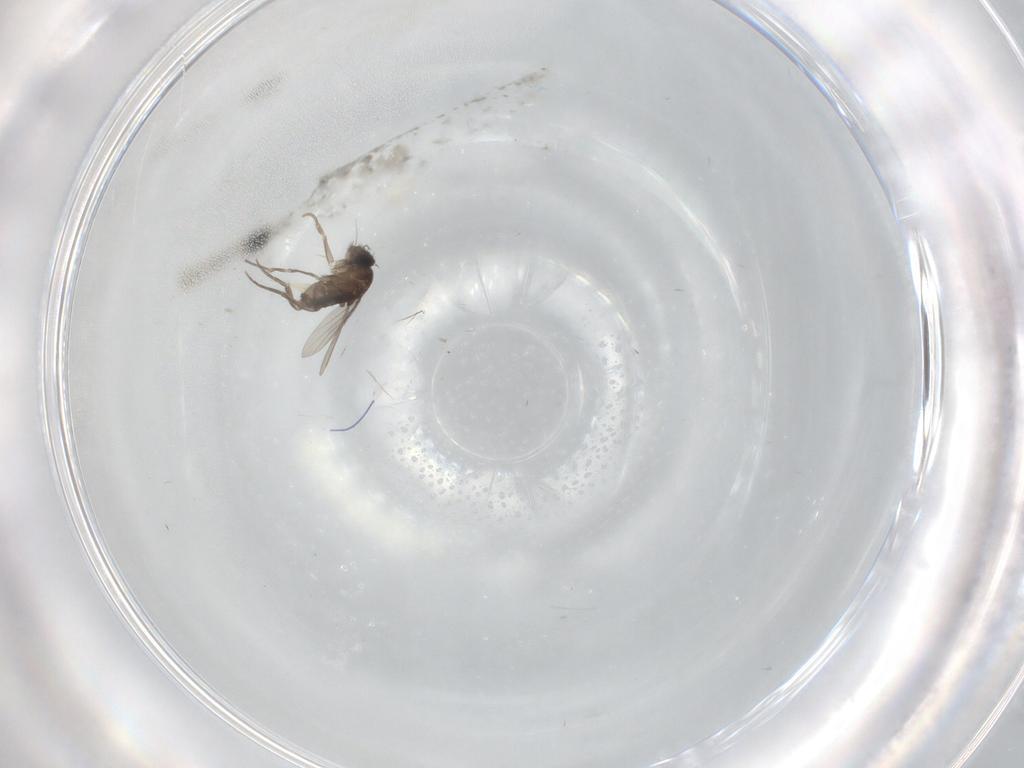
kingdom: Animalia
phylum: Arthropoda
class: Insecta
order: Diptera
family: Phoridae
